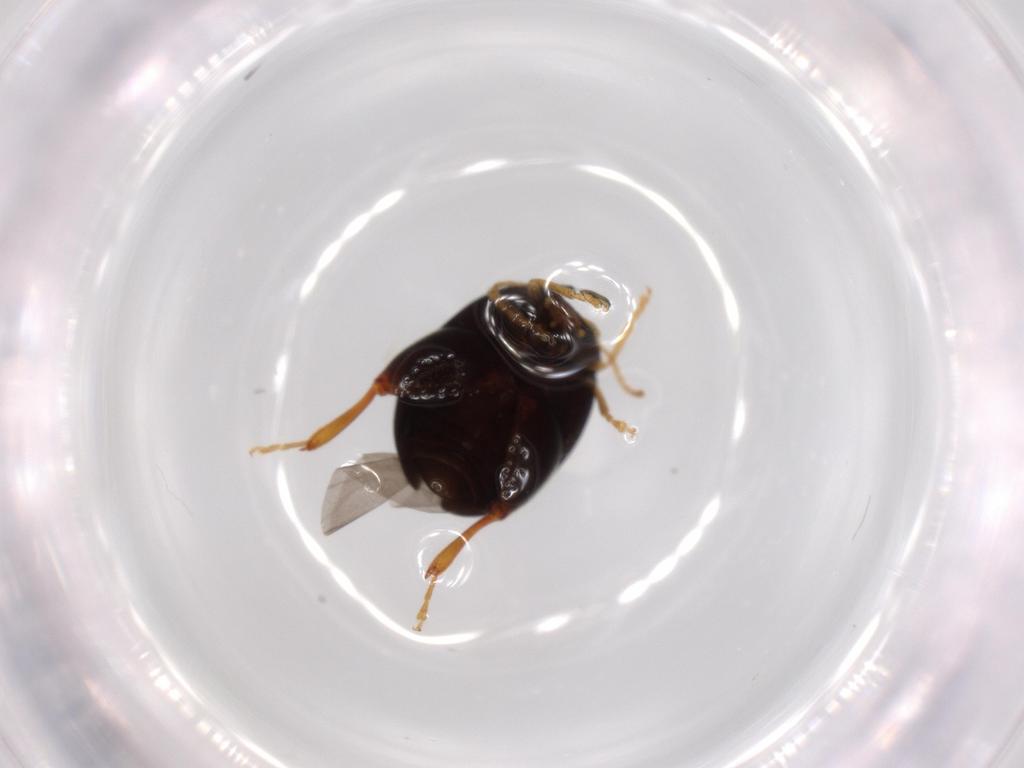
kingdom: Animalia
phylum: Arthropoda
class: Insecta
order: Coleoptera
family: Chrysomelidae
